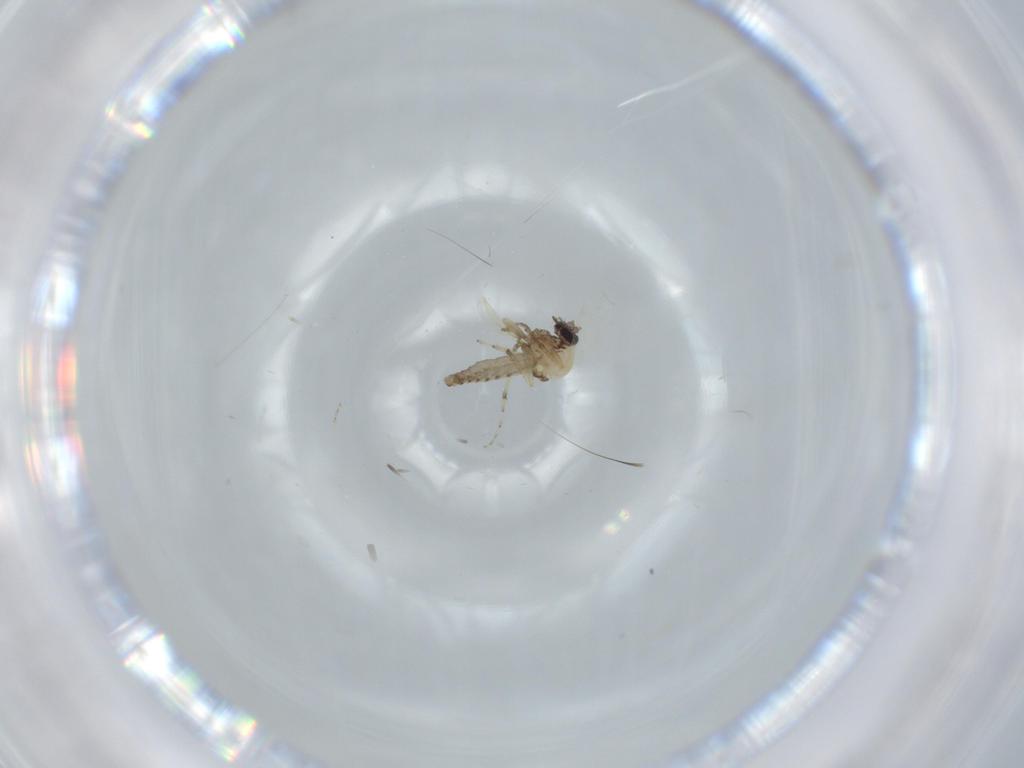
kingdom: Animalia
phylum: Arthropoda
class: Insecta
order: Diptera
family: Ceratopogonidae
